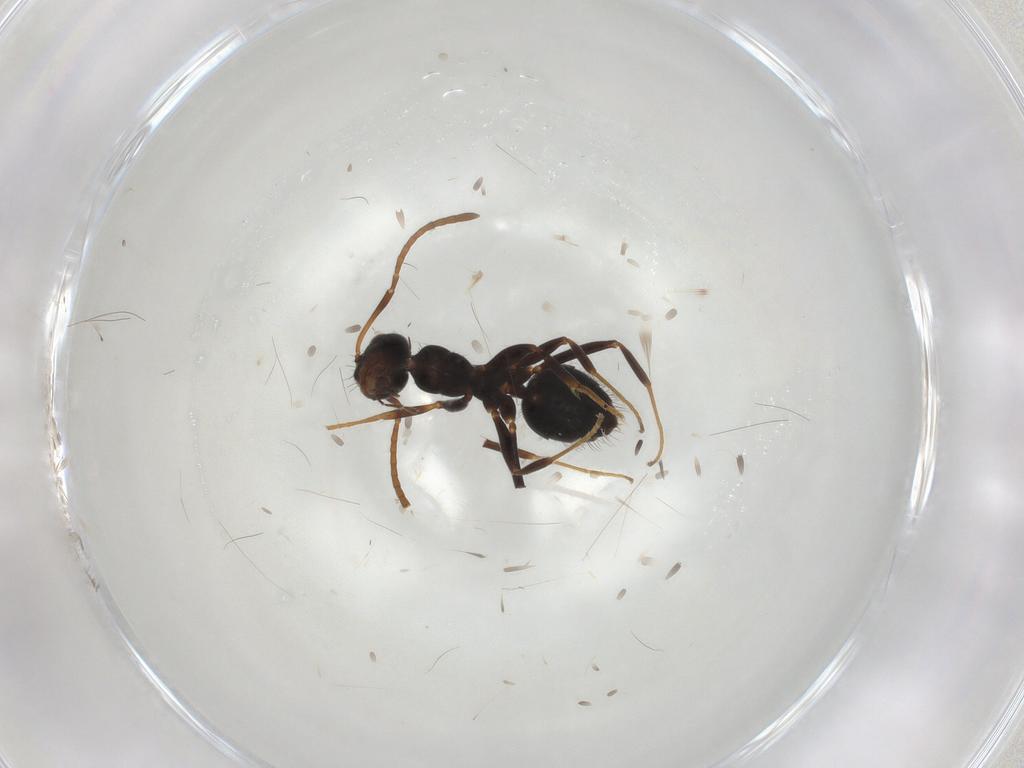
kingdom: Animalia
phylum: Arthropoda
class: Insecta
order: Hymenoptera
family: Formicidae
